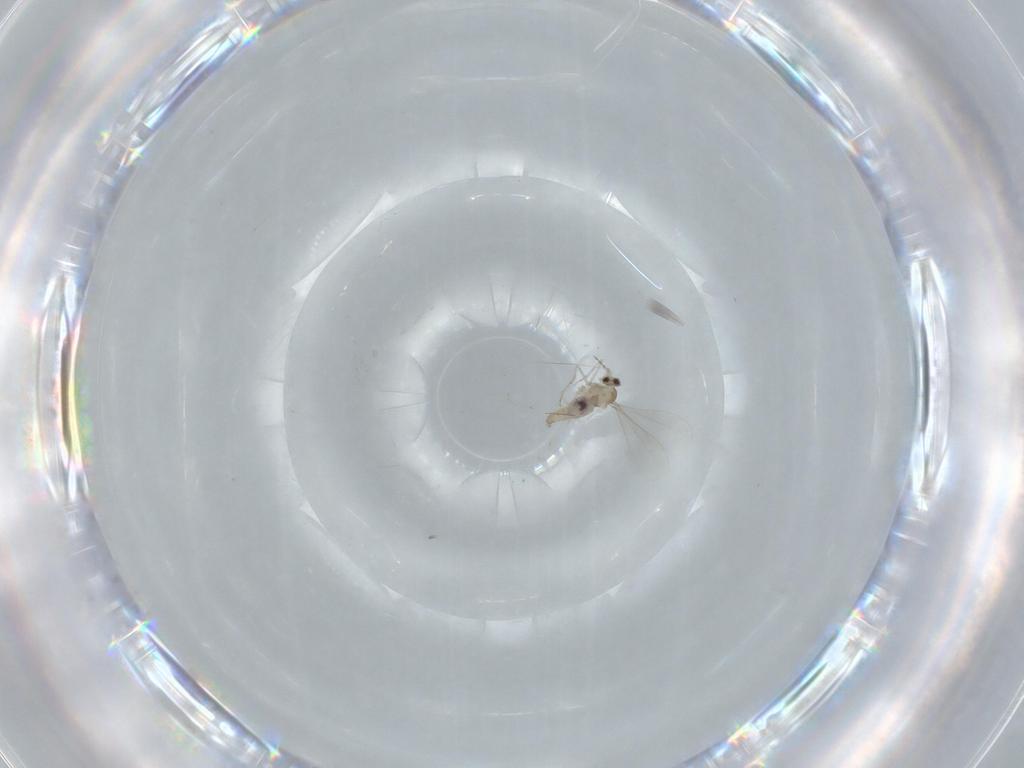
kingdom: Animalia
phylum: Arthropoda
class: Insecta
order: Diptera
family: Cecidomyiidae
